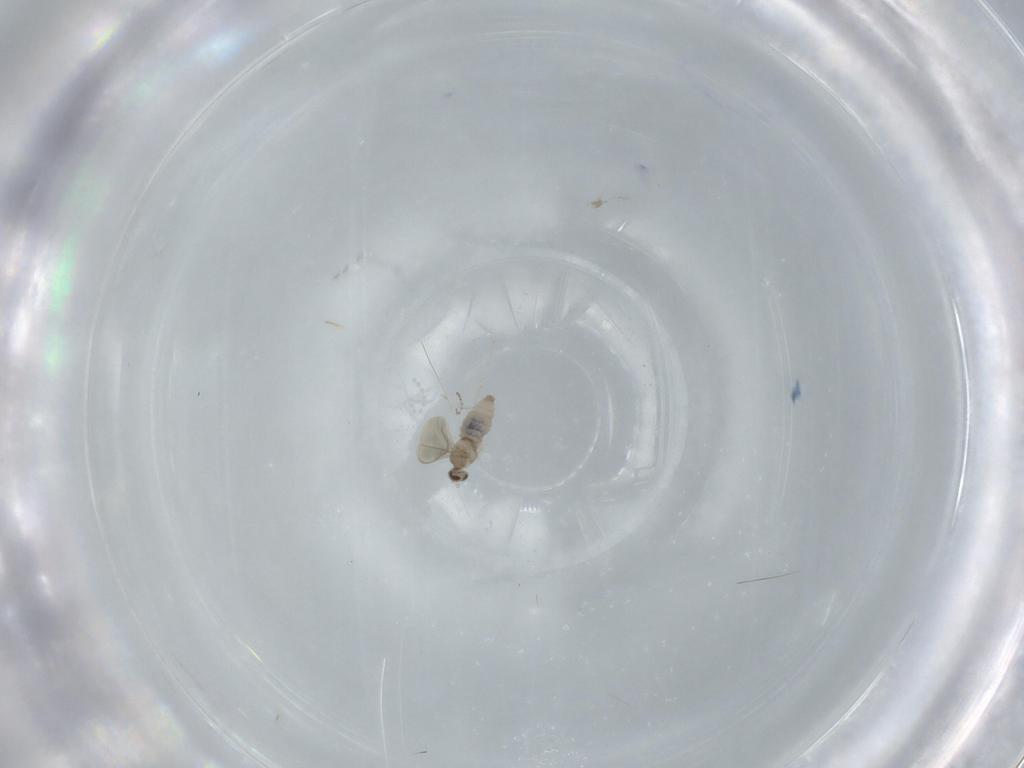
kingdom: Animalia
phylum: Arthropoda
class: Insecta
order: Diptera
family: Cecidomyiidae
